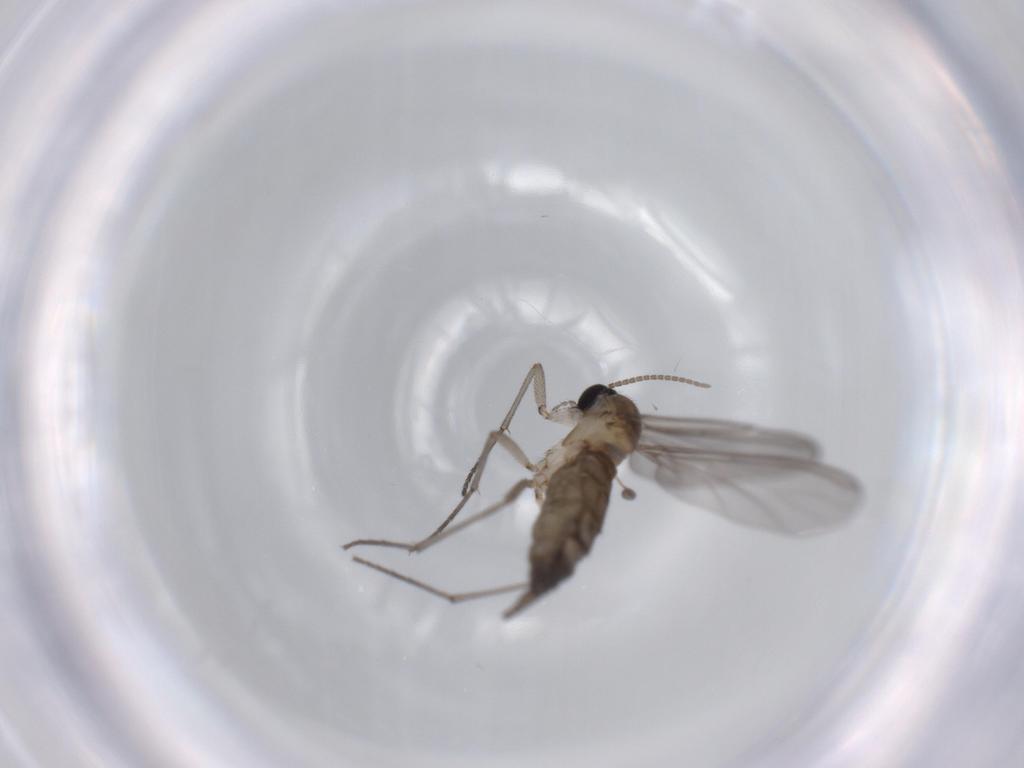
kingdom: Animalia
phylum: Arthropoda
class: Insecta
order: Diptera
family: Sciaridae
